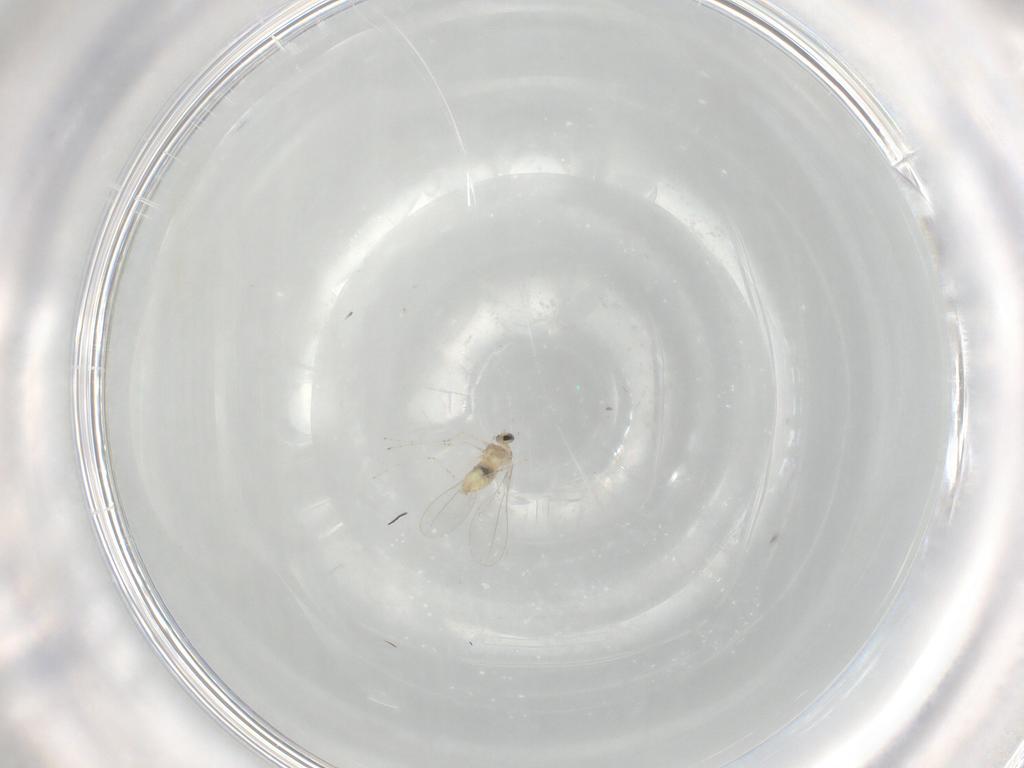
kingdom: Animalia
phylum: Arthropoda
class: Insecta
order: Diptera
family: Cecidomyiidae
